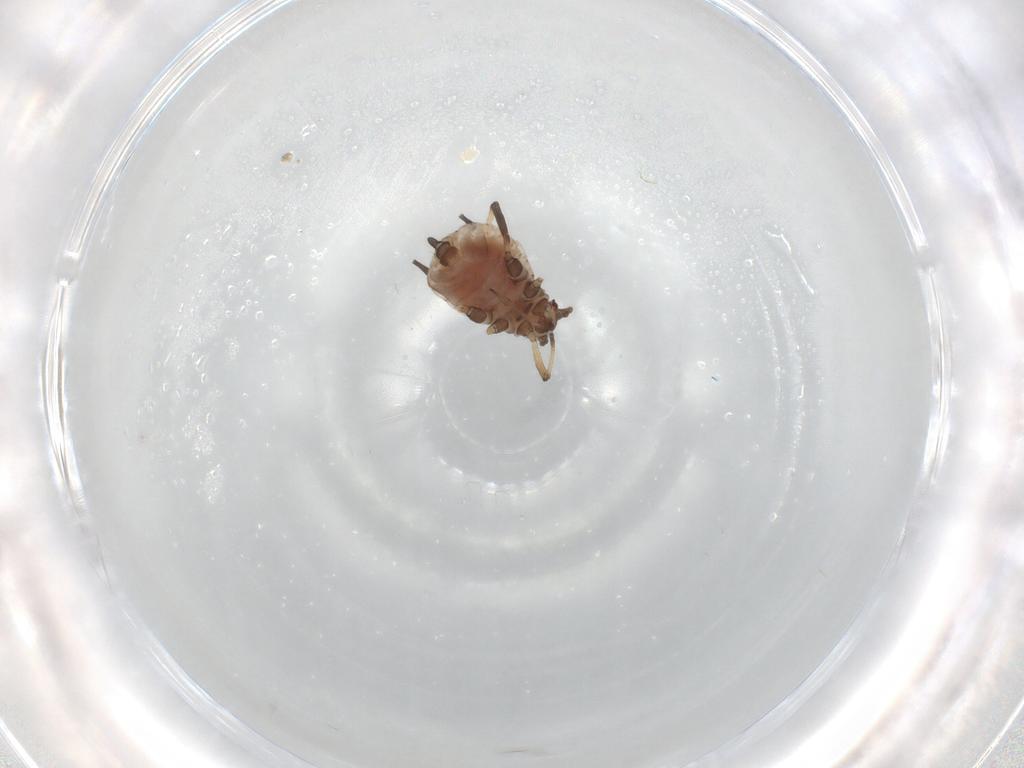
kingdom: Animalia
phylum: Arthropoda
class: Insecta
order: Hemiptera
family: Aphididae
